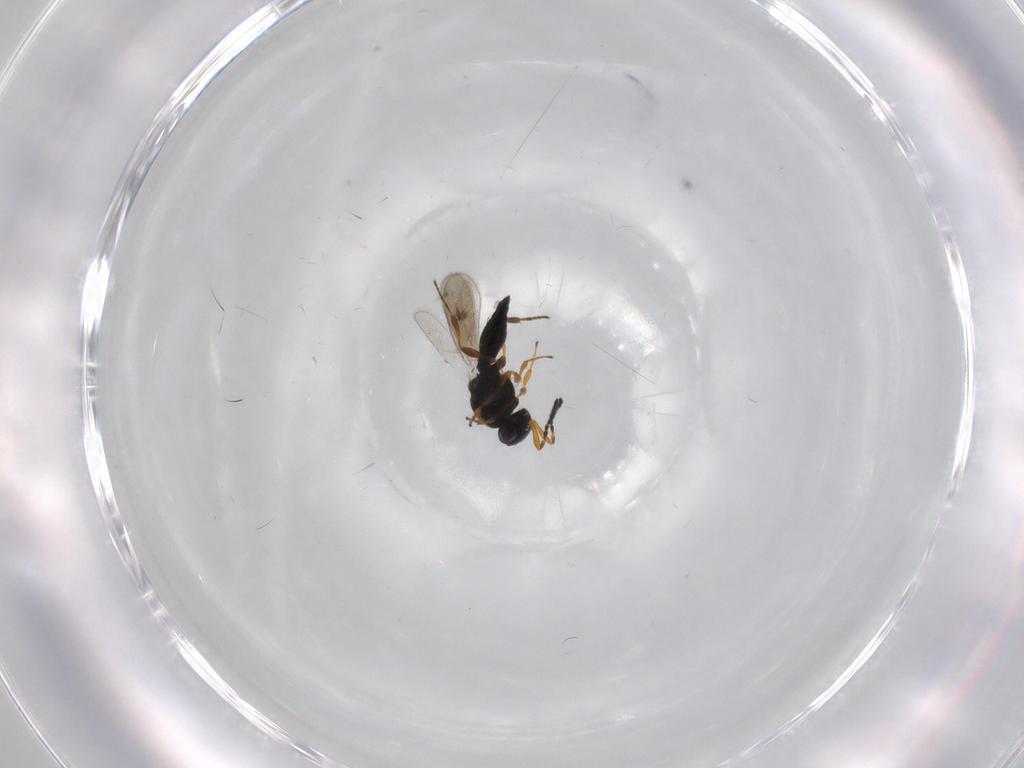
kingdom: Animalia
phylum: Arthropoda
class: Insecta
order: Hymenoptera
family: Platygastridae
